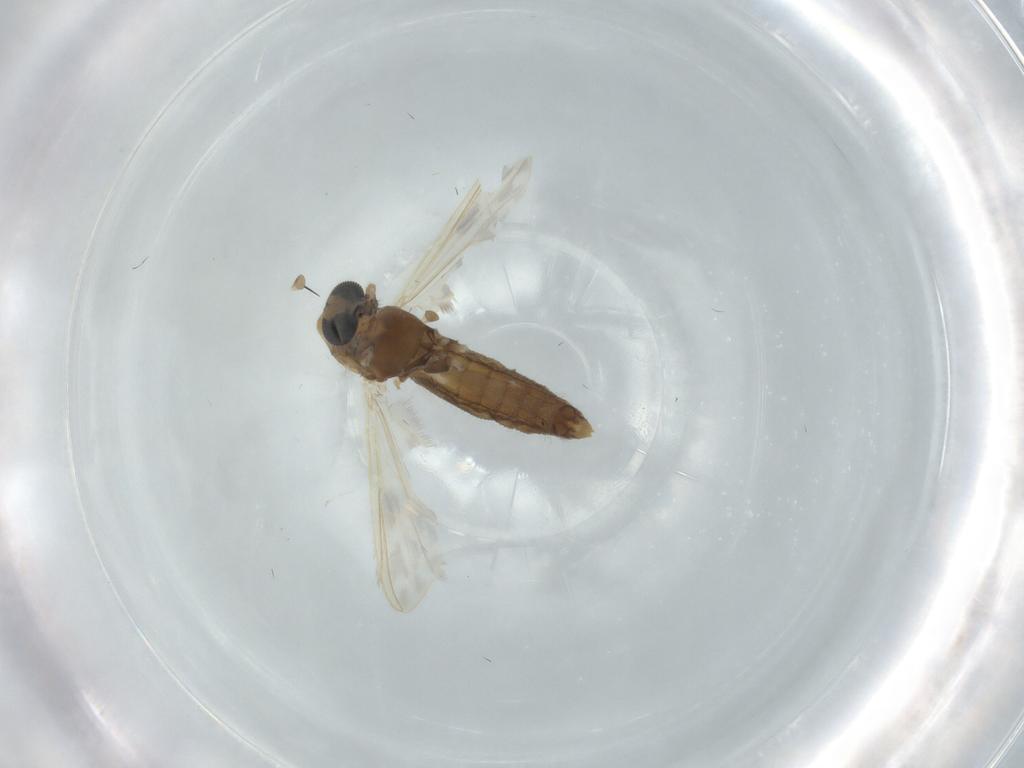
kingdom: Animalia
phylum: Arthropoda
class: Insecta
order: Diptera
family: Chironomidae
